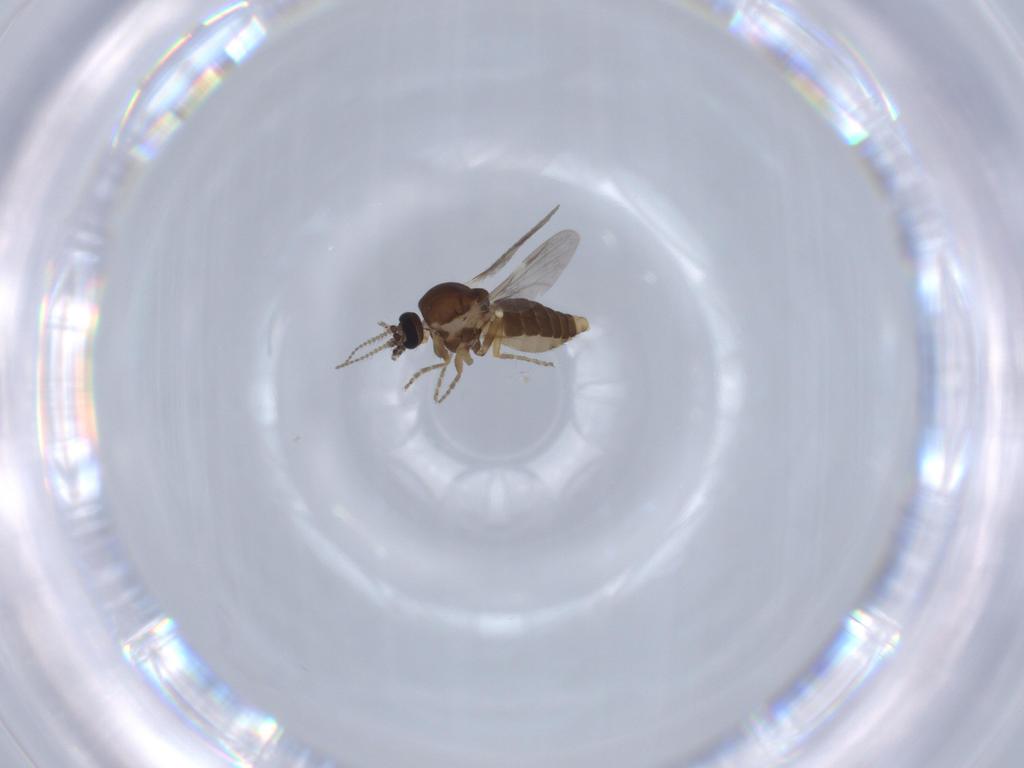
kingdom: Animalia
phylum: Arthropoda
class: Insecta
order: Diptera
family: Ceratopogonidae
